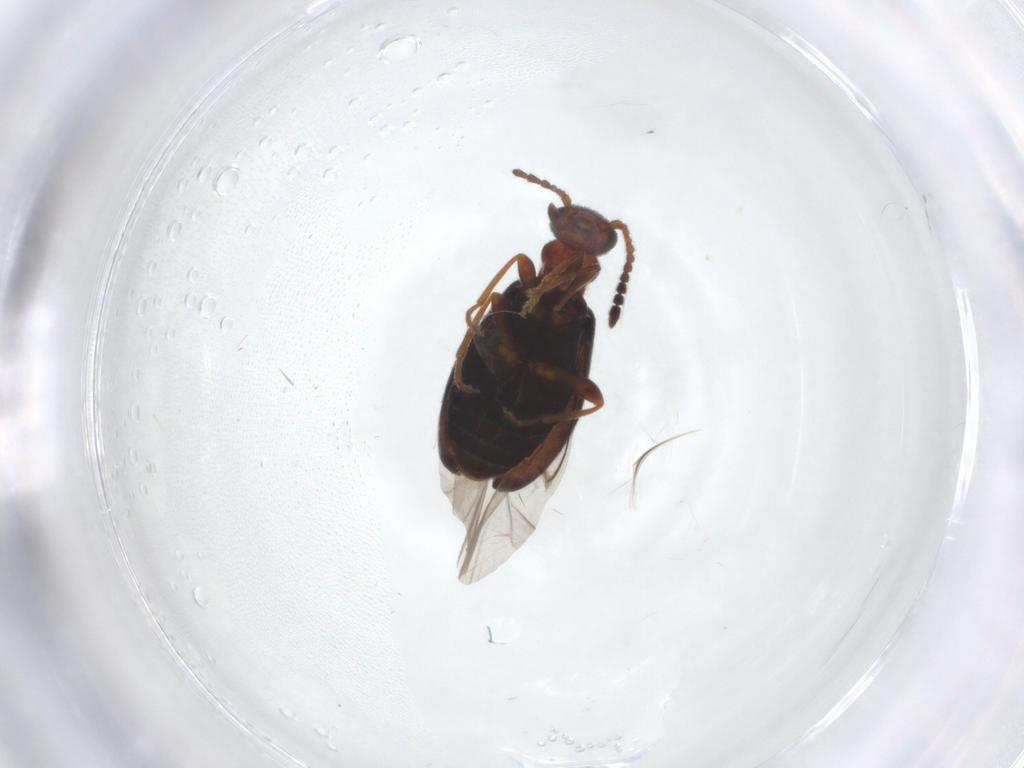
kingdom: Animalia
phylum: Arthropoda
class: Insecta
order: Coleoptera
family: Anthicidae
